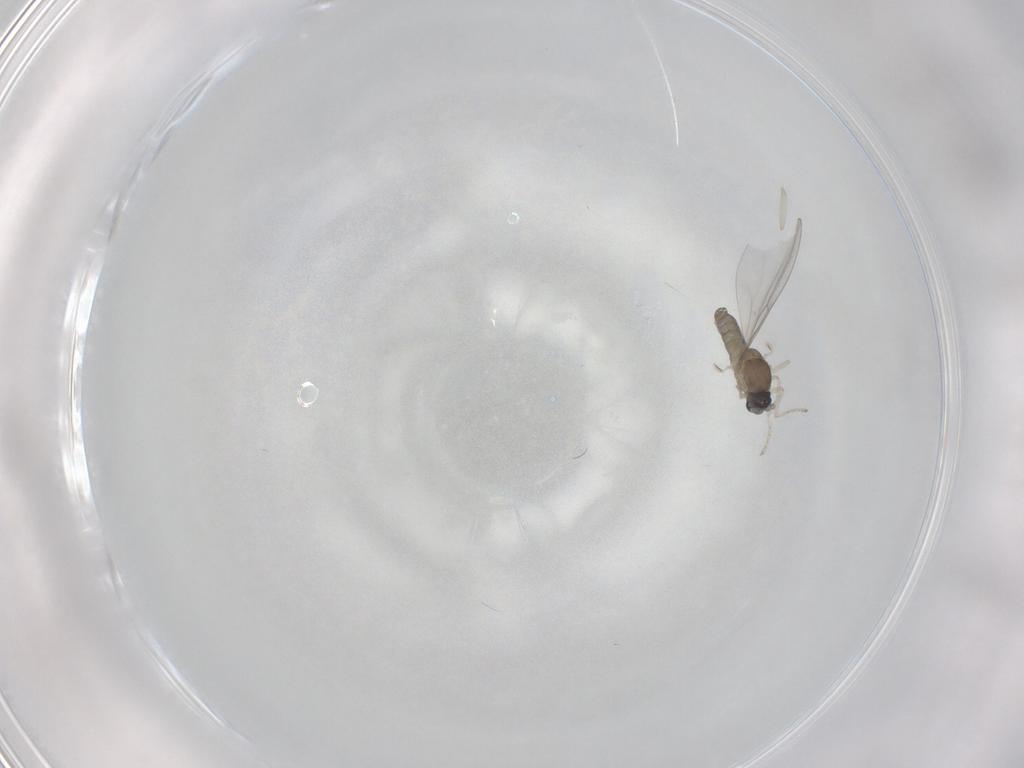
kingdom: Animalia
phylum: Arthropoda
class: Insecta
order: Diptera
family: Cecidomyiidae
